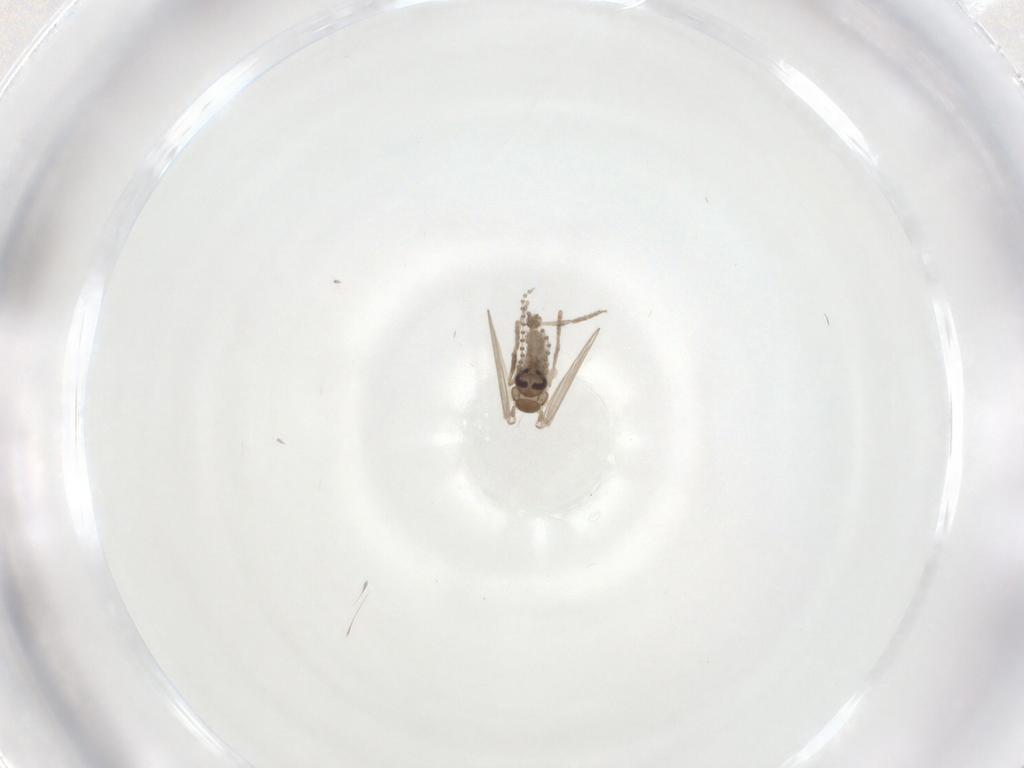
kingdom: Animalia
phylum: Arthropoda
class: Insecta
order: Diptera
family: Psychodidae
